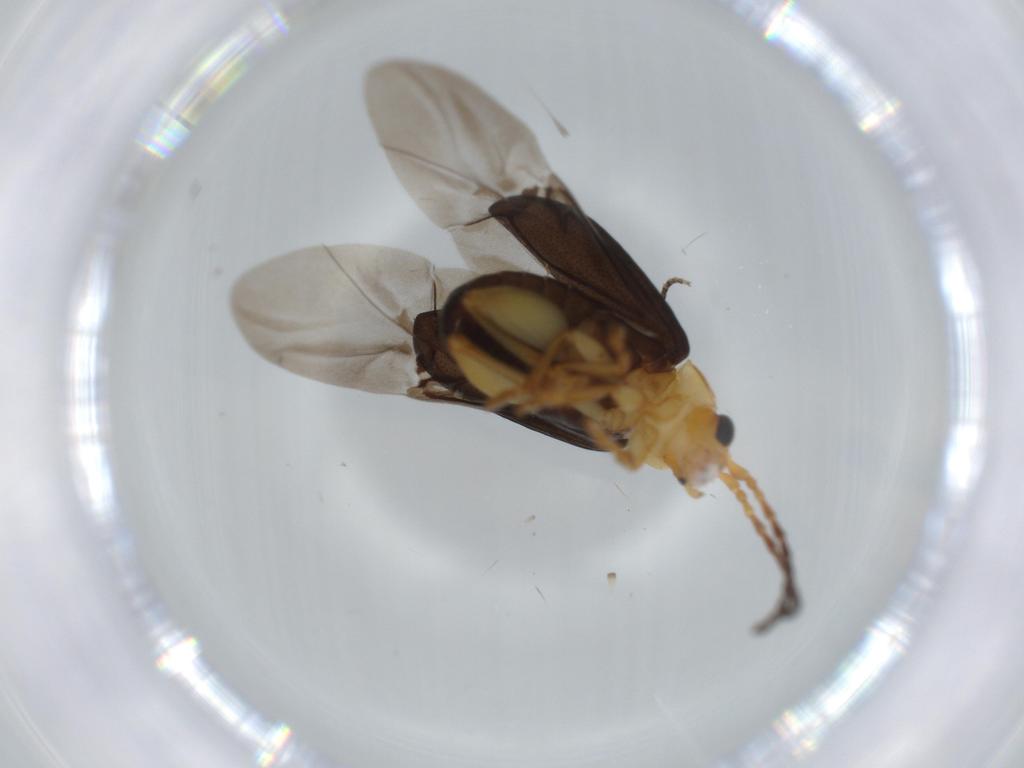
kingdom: Animalia
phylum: Arthropoda
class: Insecta
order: Coleoptera
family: Chrysomelidae
